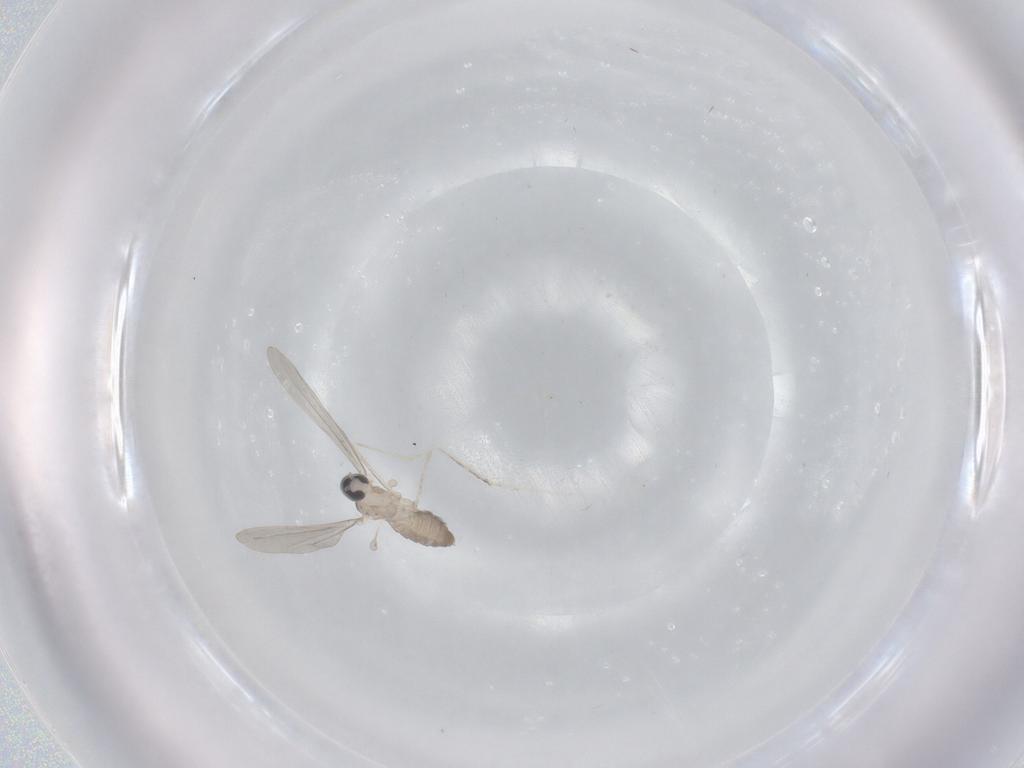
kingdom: Animalia
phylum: Arthropoda
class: Insecta
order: Diptera
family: Cecidomyiidae
